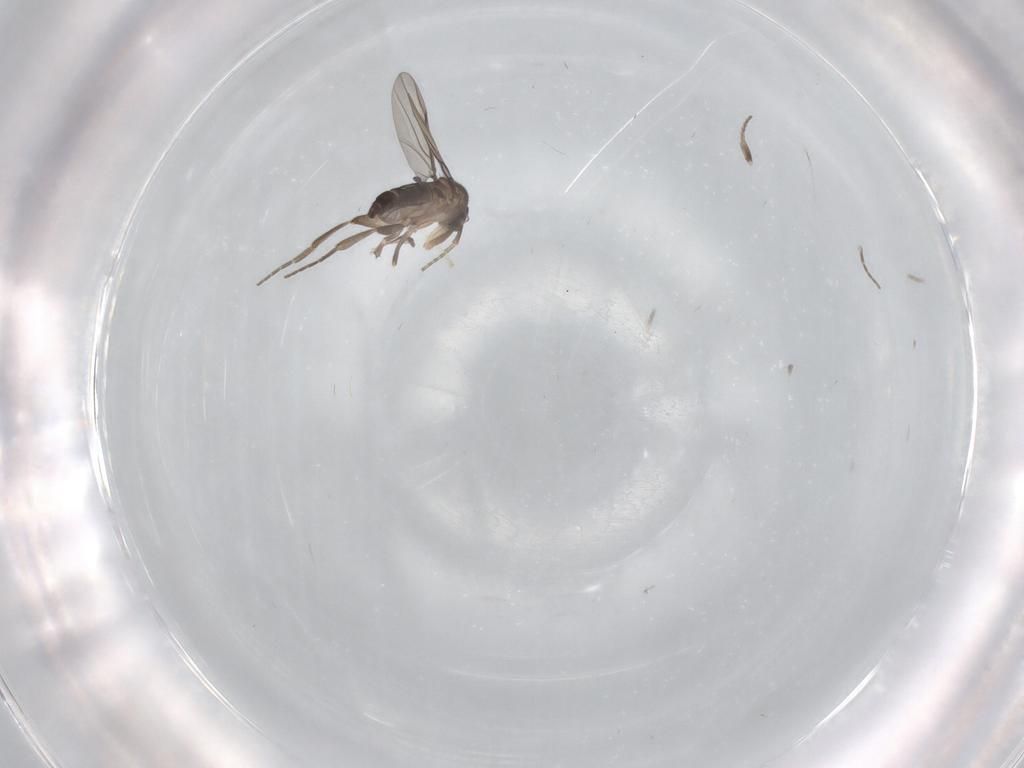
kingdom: Animalia
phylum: Arthropoda
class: Insecta
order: Diptera
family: Phoridae
